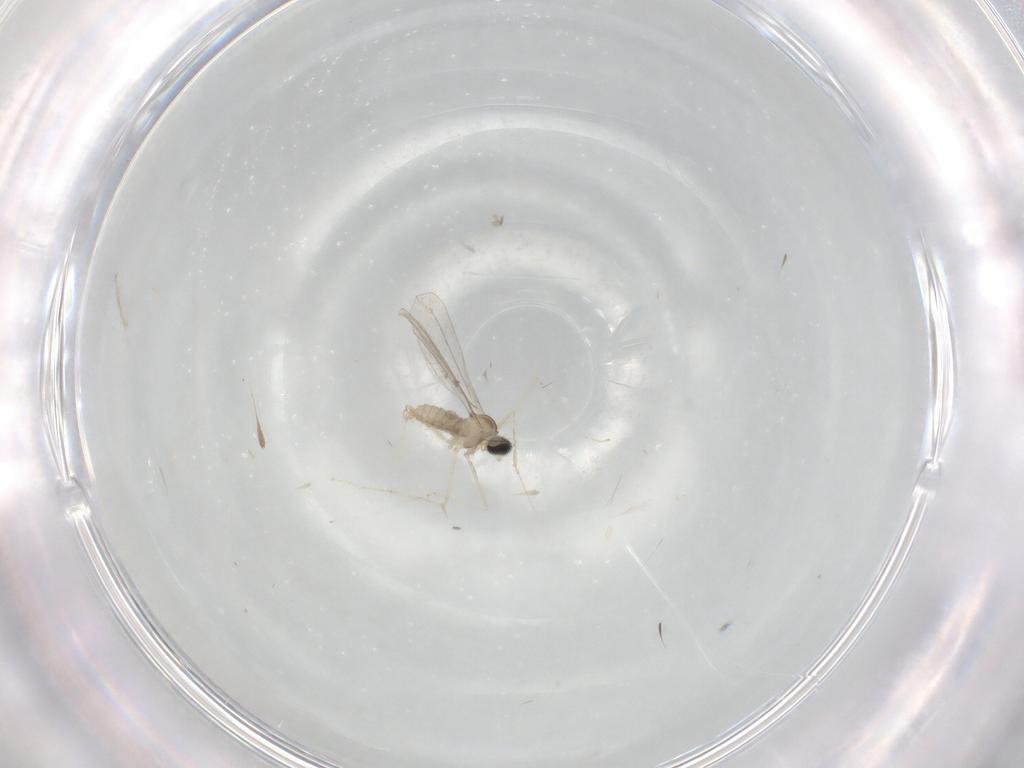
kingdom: Animalia
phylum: Arthropoda
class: Insecta
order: Diptera
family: Cecidomyiidae
